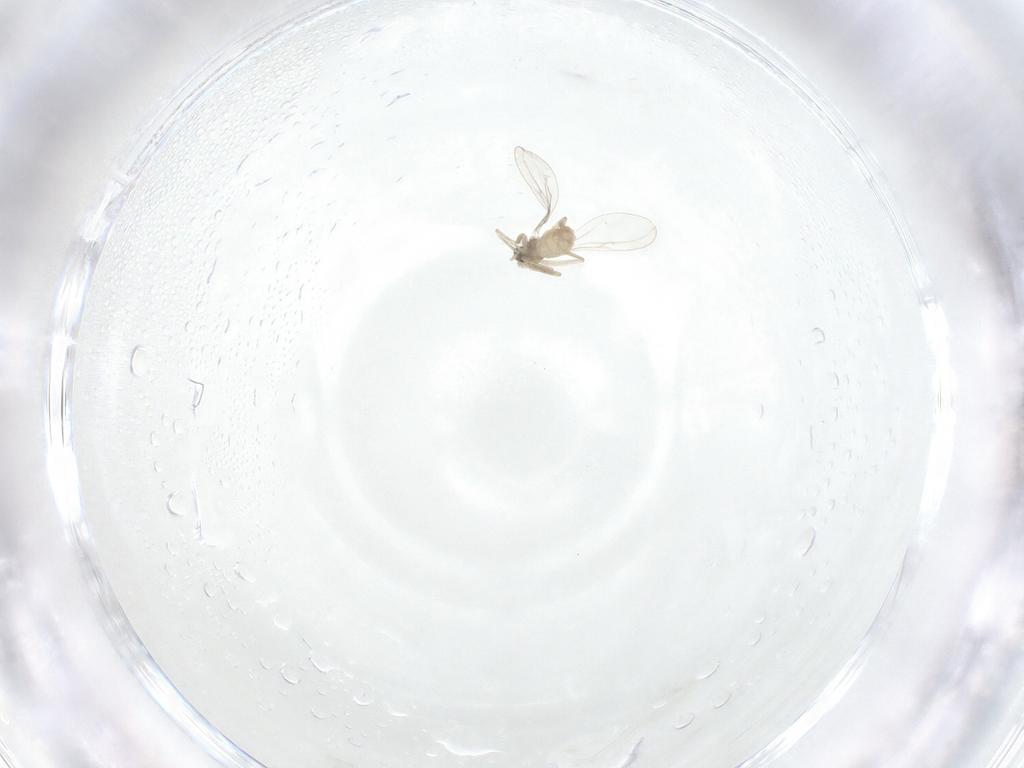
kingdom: Animalia
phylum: Arthropoda
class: Insecta
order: Diptera
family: Cecidomyiidae
